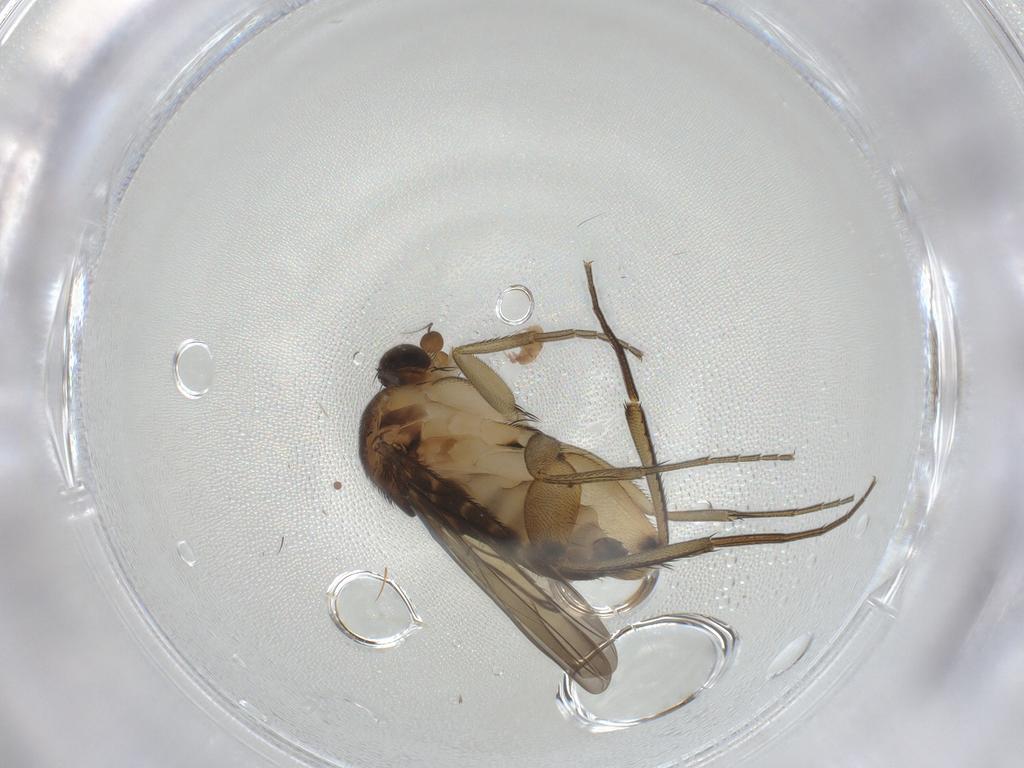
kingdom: Animalia
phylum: Arthropoda
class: Insecta
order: Diptera
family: Phoridae
